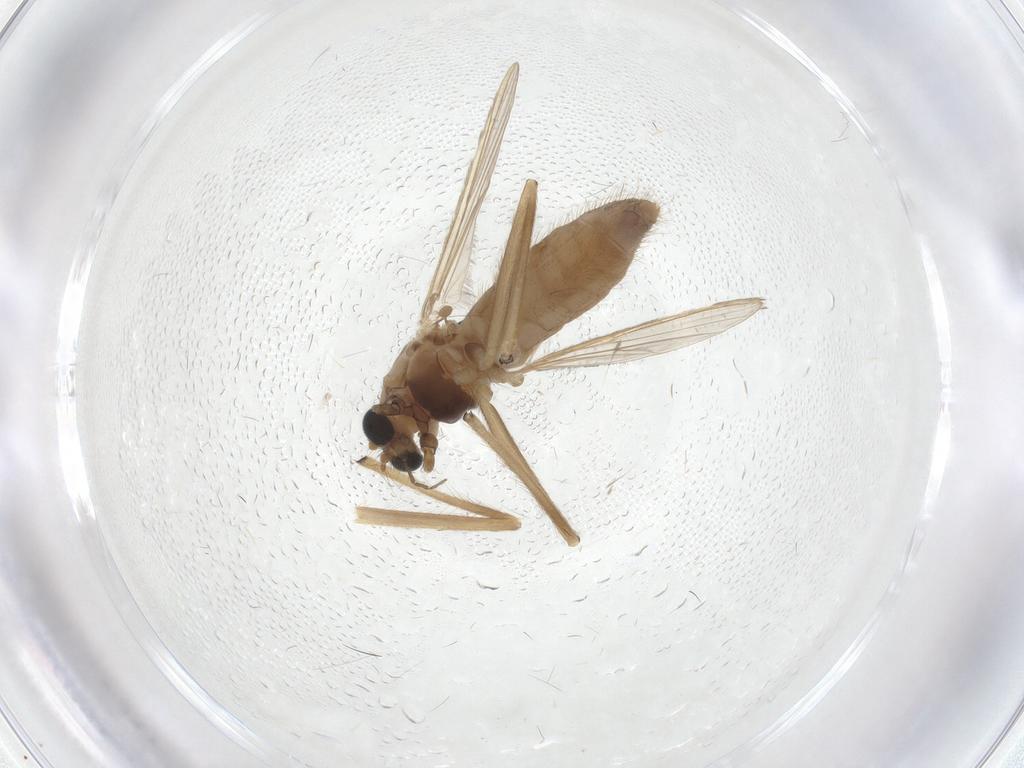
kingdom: Animalia
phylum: Arthropoda
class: Insecta
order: Diptera
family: Chironomidae
